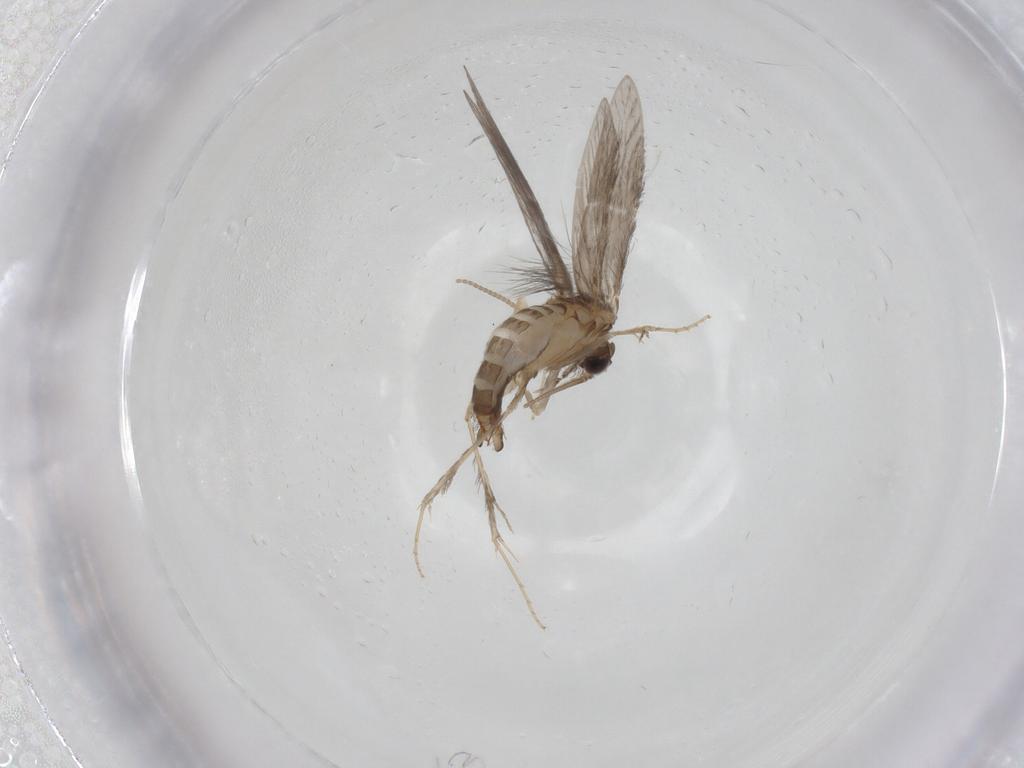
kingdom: Animalia
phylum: Arthropoda
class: Insecta
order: Trichoptera
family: Hydroptilidae
